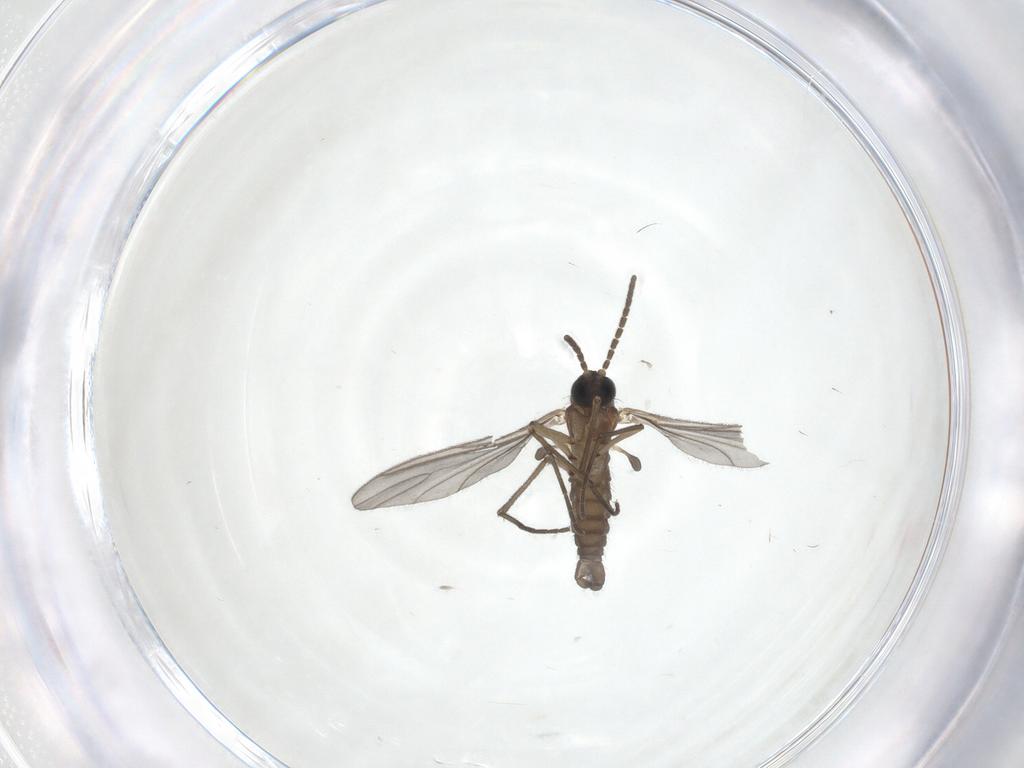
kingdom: Animalia
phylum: Arthropoda
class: Insecta
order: Diptera
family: Sciaridae
